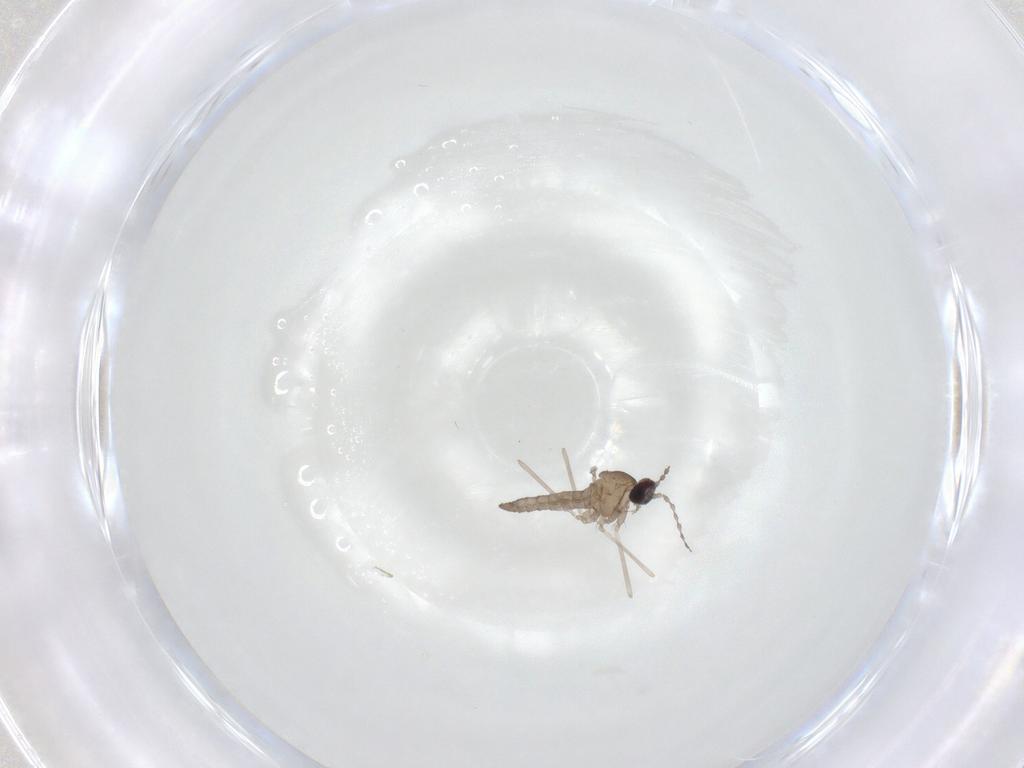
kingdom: Animalia
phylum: Arthropoda
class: Insecta
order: Diptera
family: Cecidomyiidae
